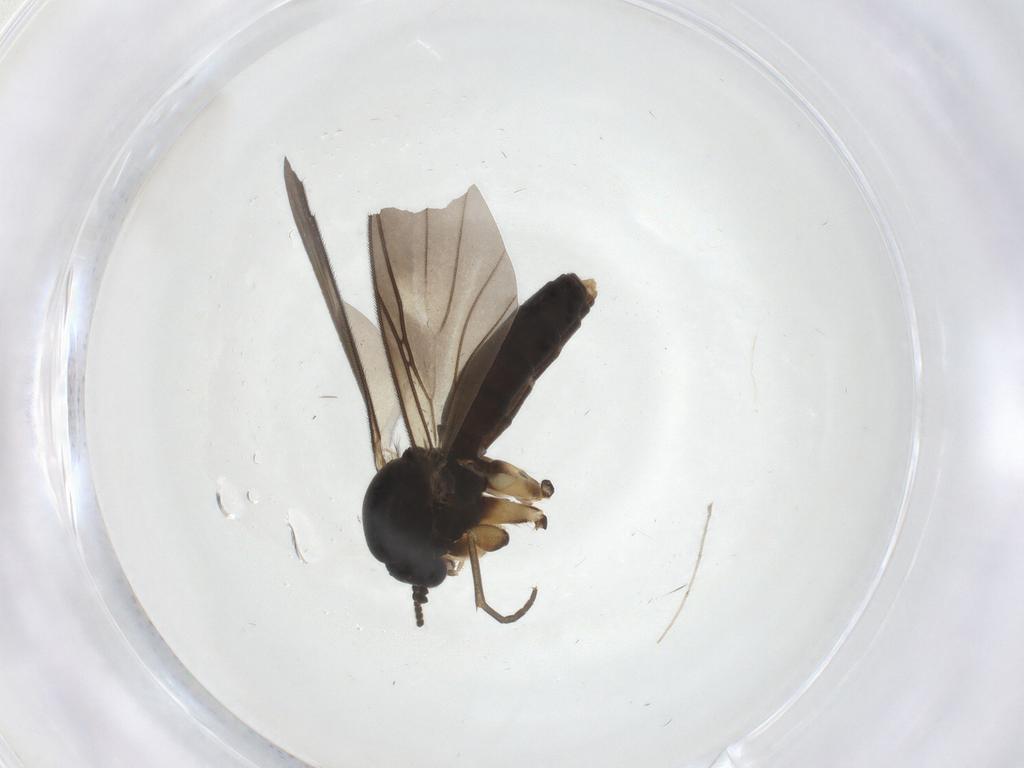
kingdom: Animalia
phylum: Arthropoda
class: Insecta
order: Diptera
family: Mycetophilidae
